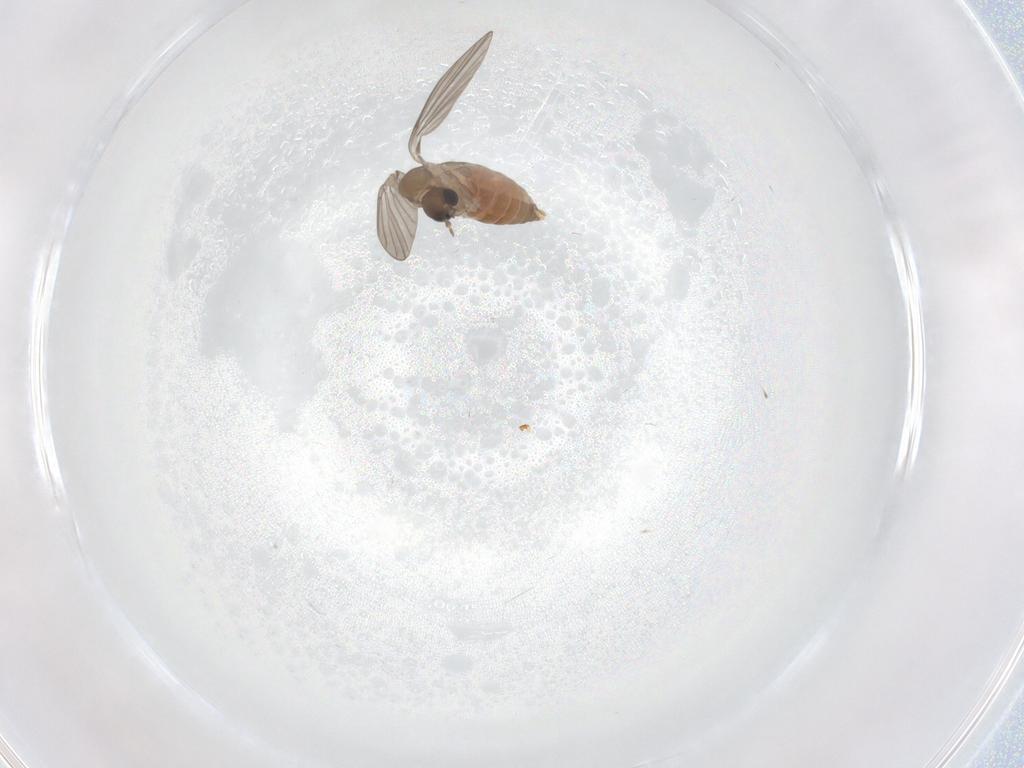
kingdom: Animalia
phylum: Arthropoda
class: Insecta
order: Diptera
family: Cecidomyiidae
